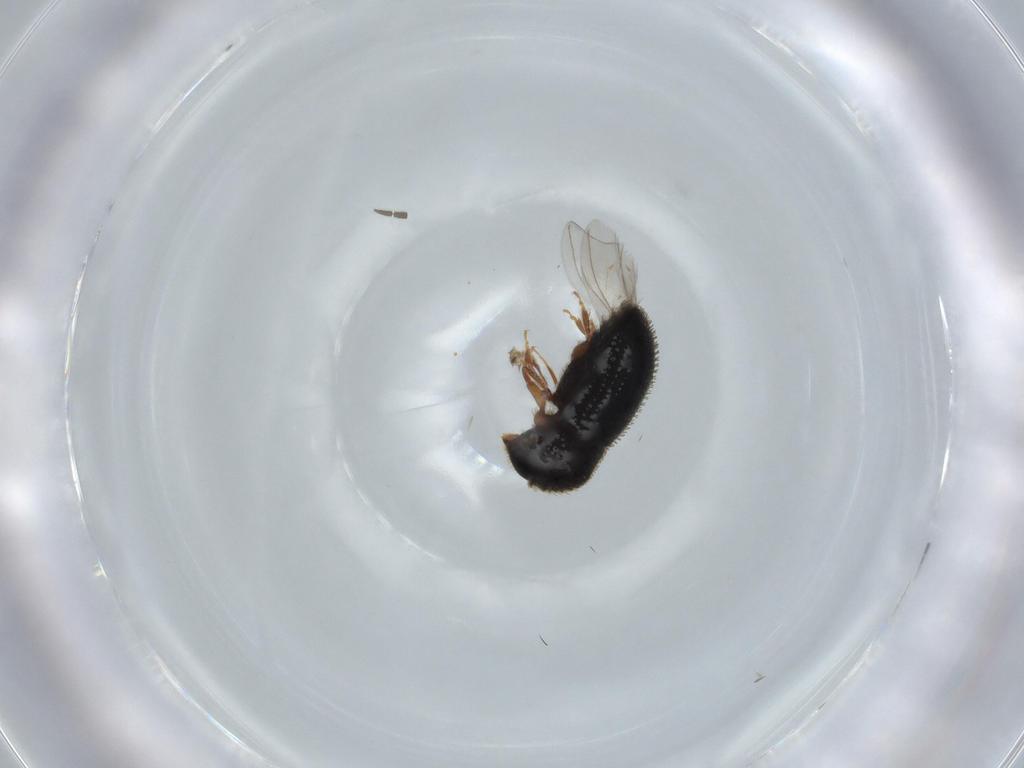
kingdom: Animalia
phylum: Arthropoda
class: Insecta
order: Coleoptera
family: Curculionidae
